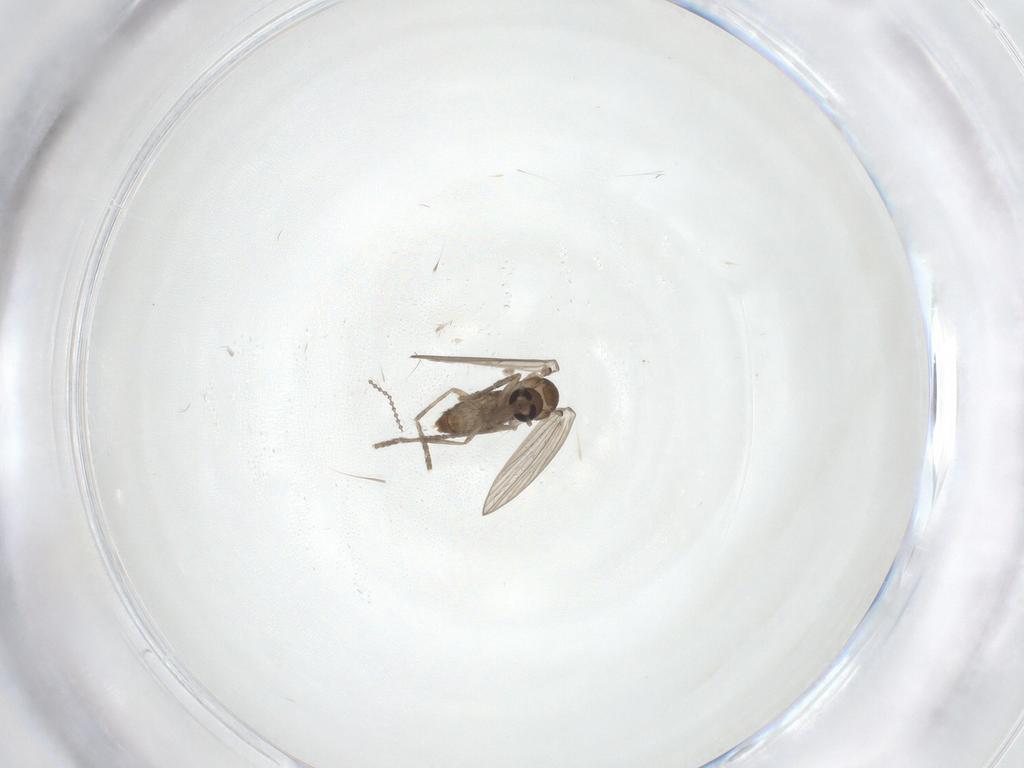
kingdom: Animalia
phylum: Arthropoda
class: Insecta
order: Diptera
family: Psychodidae
